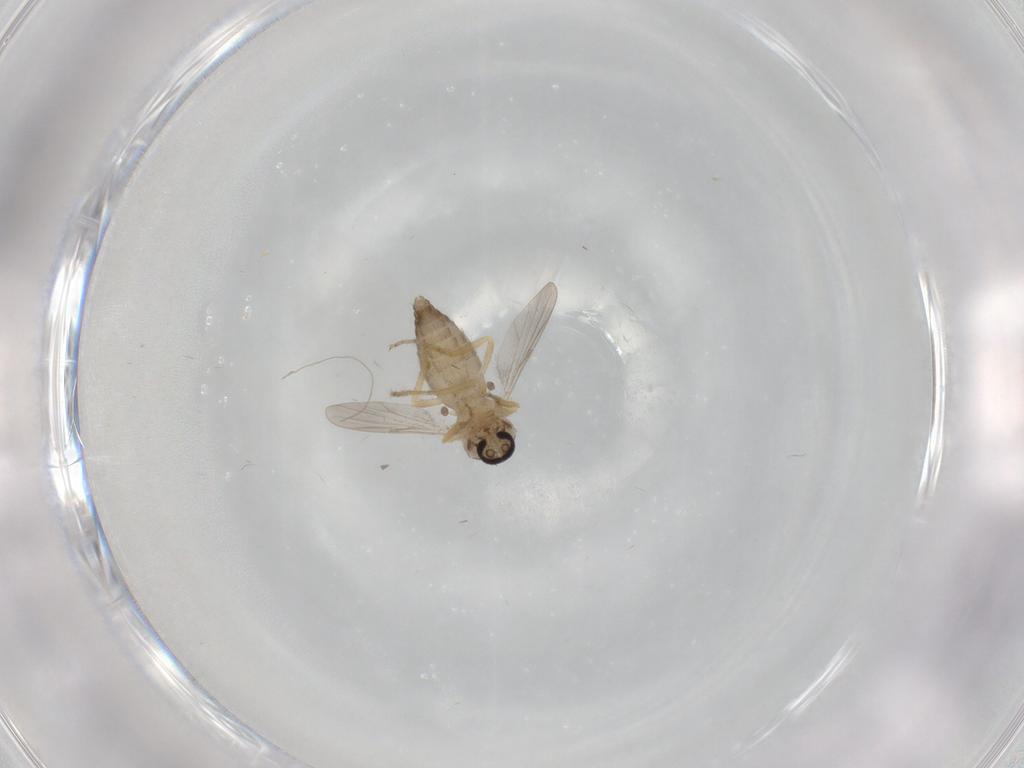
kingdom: Animalia
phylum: Arthropoda
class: Insecta
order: Diptera
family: Ceratopogonidae
